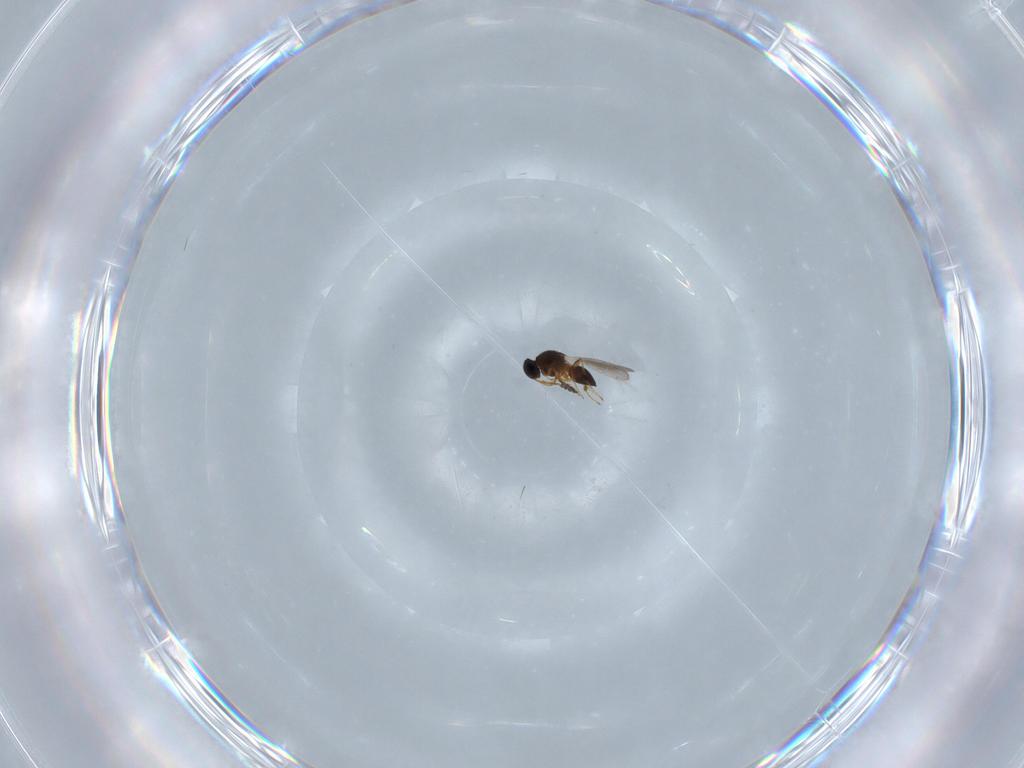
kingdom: Animalia
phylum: Arthropoda
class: Insecta
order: Hymenoptera
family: Platygastridae
